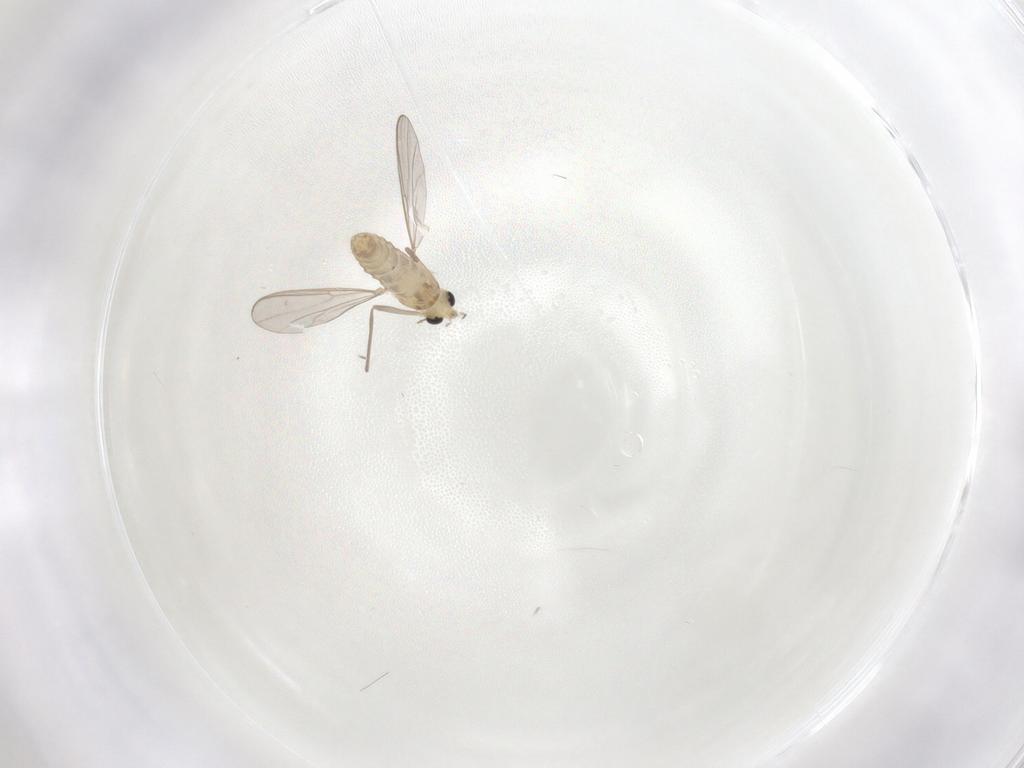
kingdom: Animalia
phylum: Arthropoda
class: Insecta
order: Diptera
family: Chironomidae
